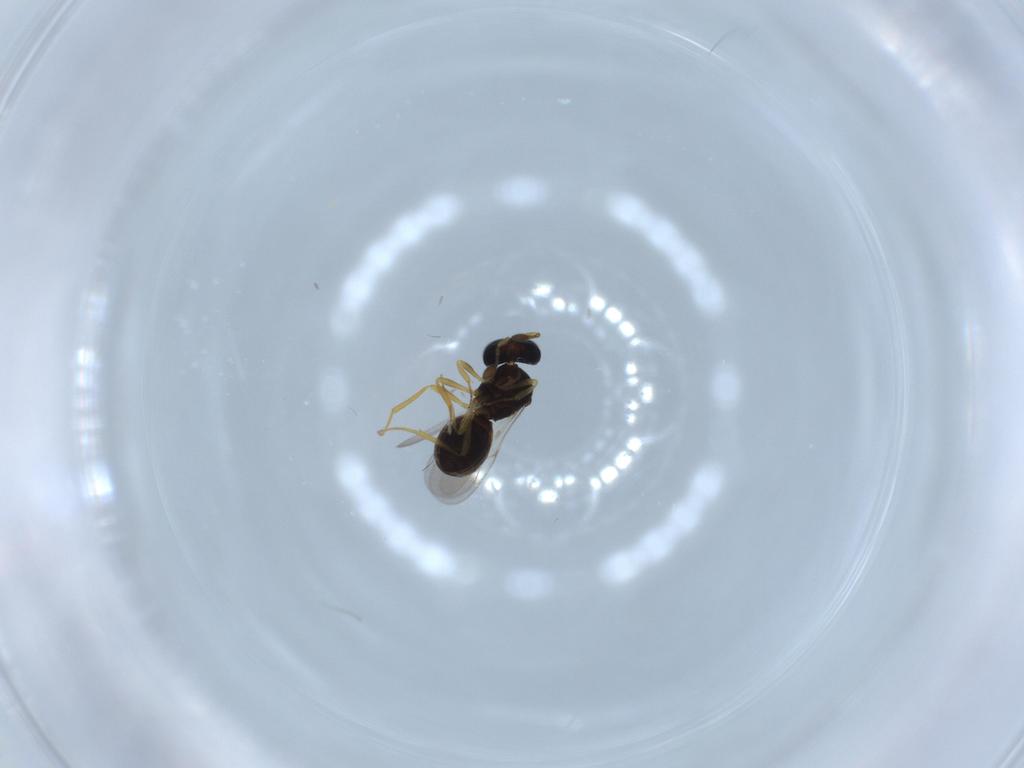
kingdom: Animalia
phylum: Arthropoda
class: Insecta
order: Hymenoptera
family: Scelionidae
